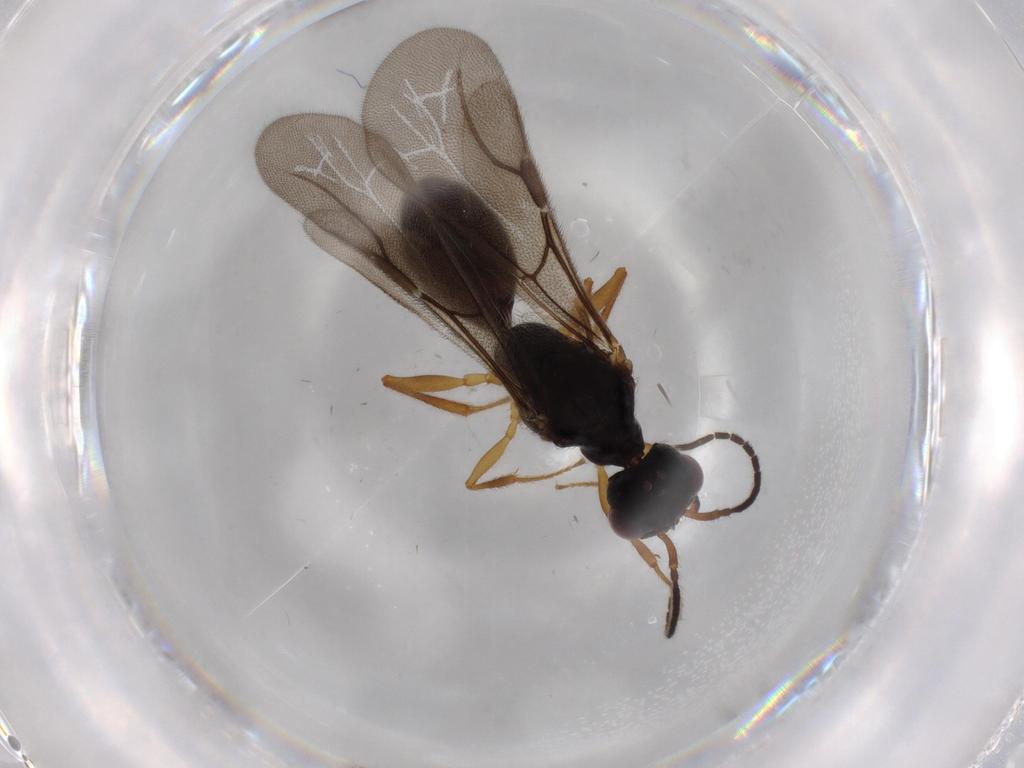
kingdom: Animalia
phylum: Arthropoda
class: Insecta
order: Hymenoptera
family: Bethylidae
